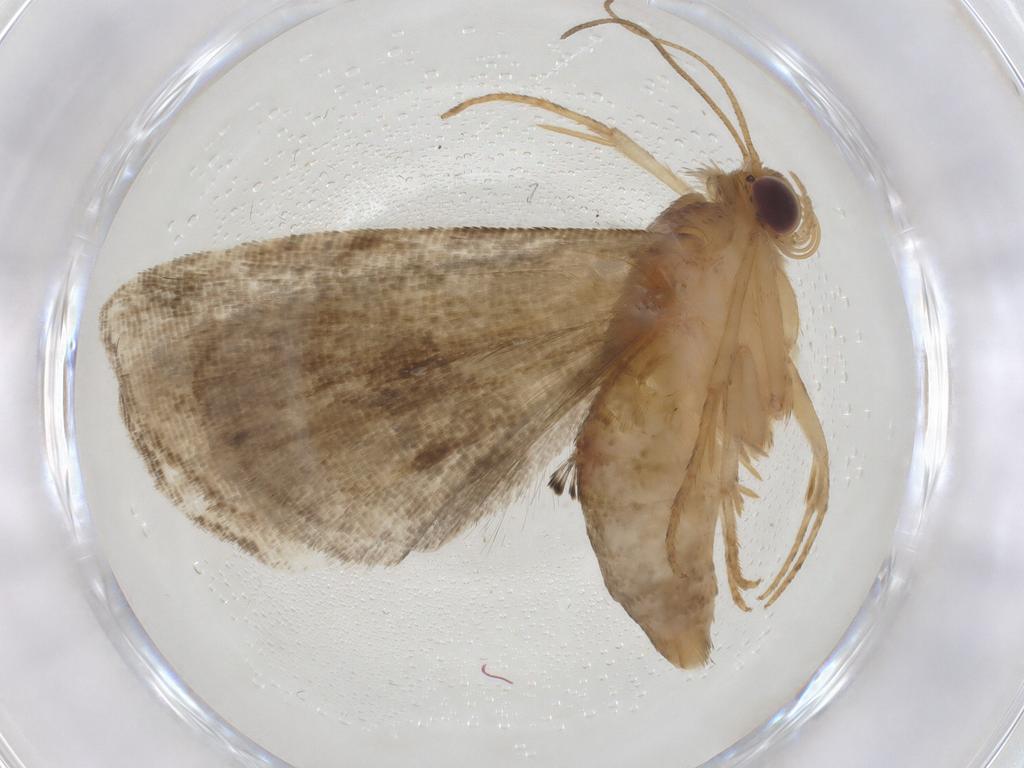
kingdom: Animalia
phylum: Arthropoda
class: Insecta
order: Lepidoptera
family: Noctuidae
